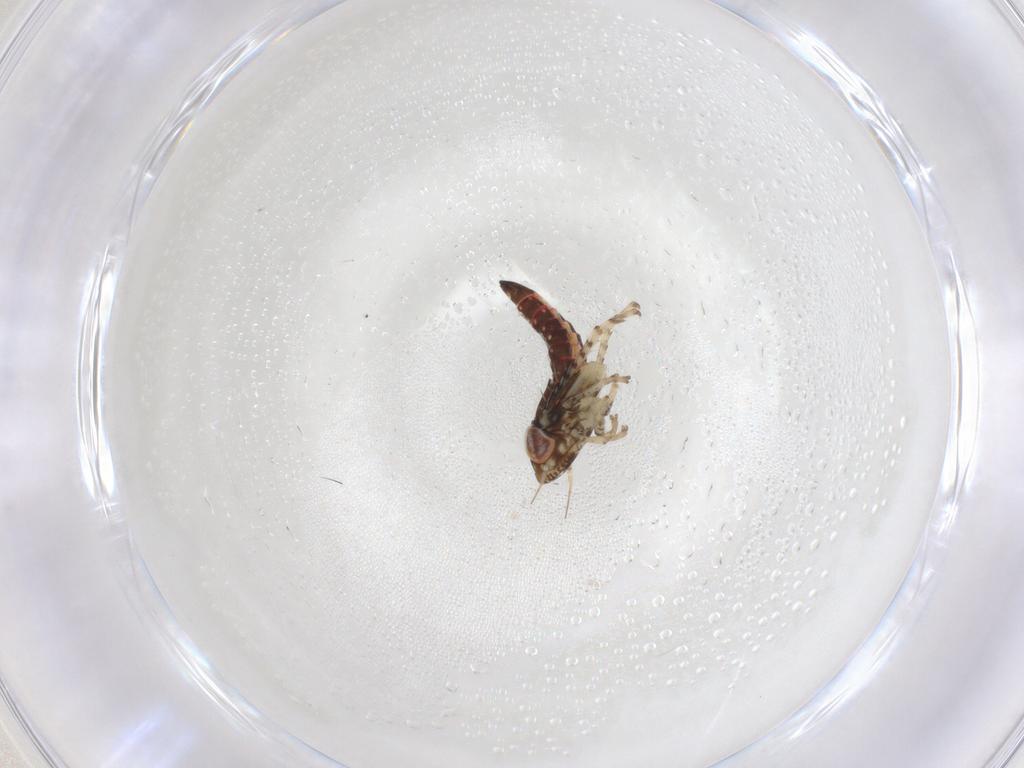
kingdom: Animalia
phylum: Arthropoda
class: Insecta
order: Hemiptera
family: Cicadellidae
